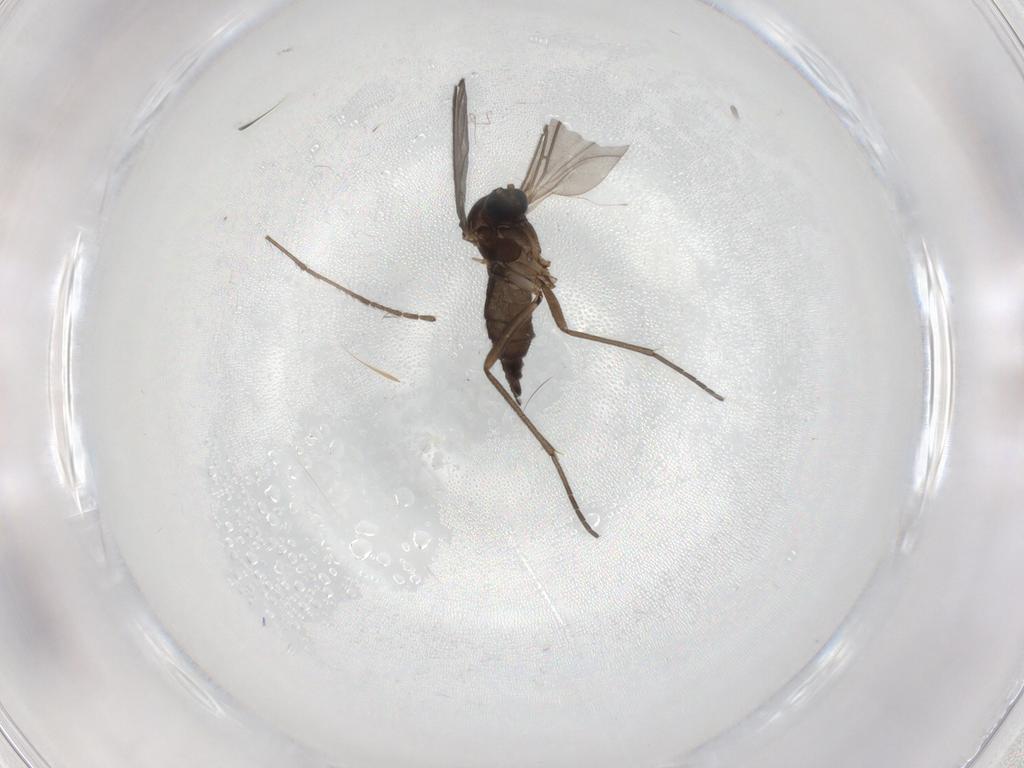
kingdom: Animalia
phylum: Arthropoda
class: Insecta
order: Diptera
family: Sciaridae
